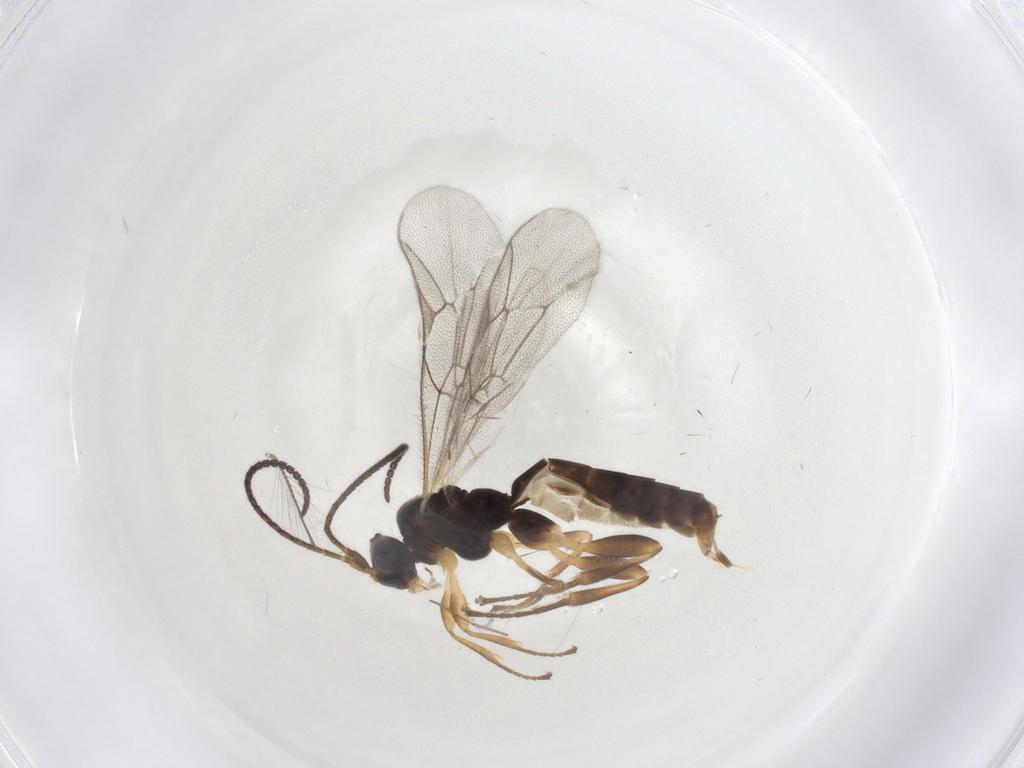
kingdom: Animalia
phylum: Arthropoda
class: Insecta
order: Hymenoptera
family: Ichneumonidae
